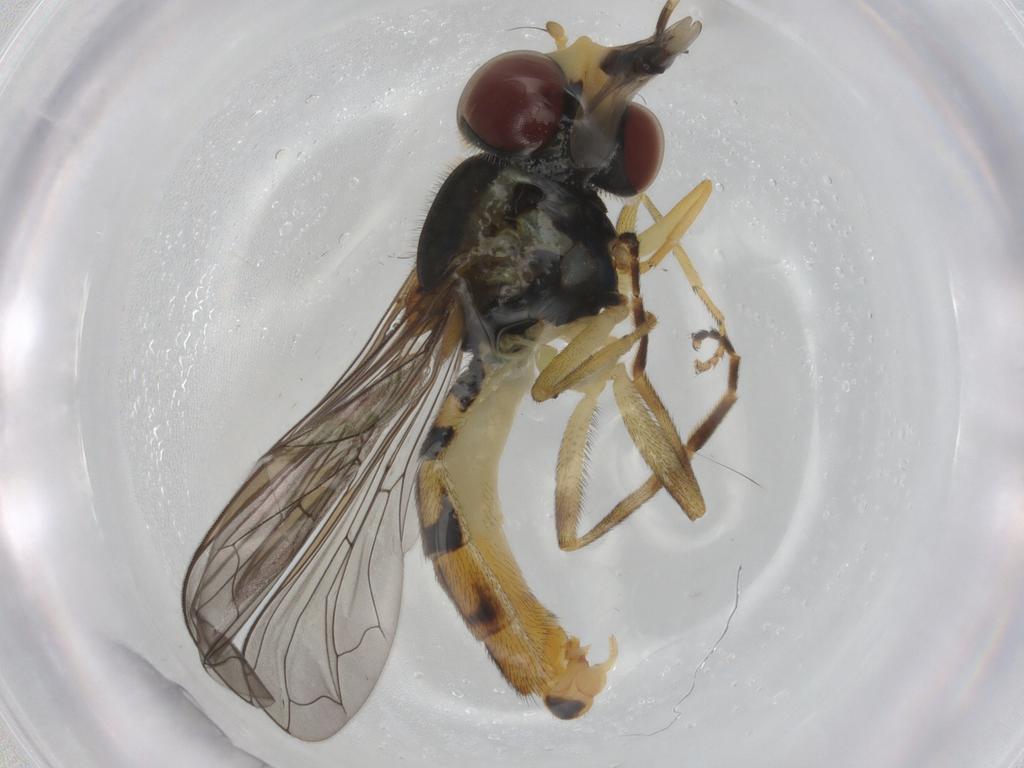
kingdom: Animalia
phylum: Arthropoda
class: Insecta
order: Diptera
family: Syrphidae
